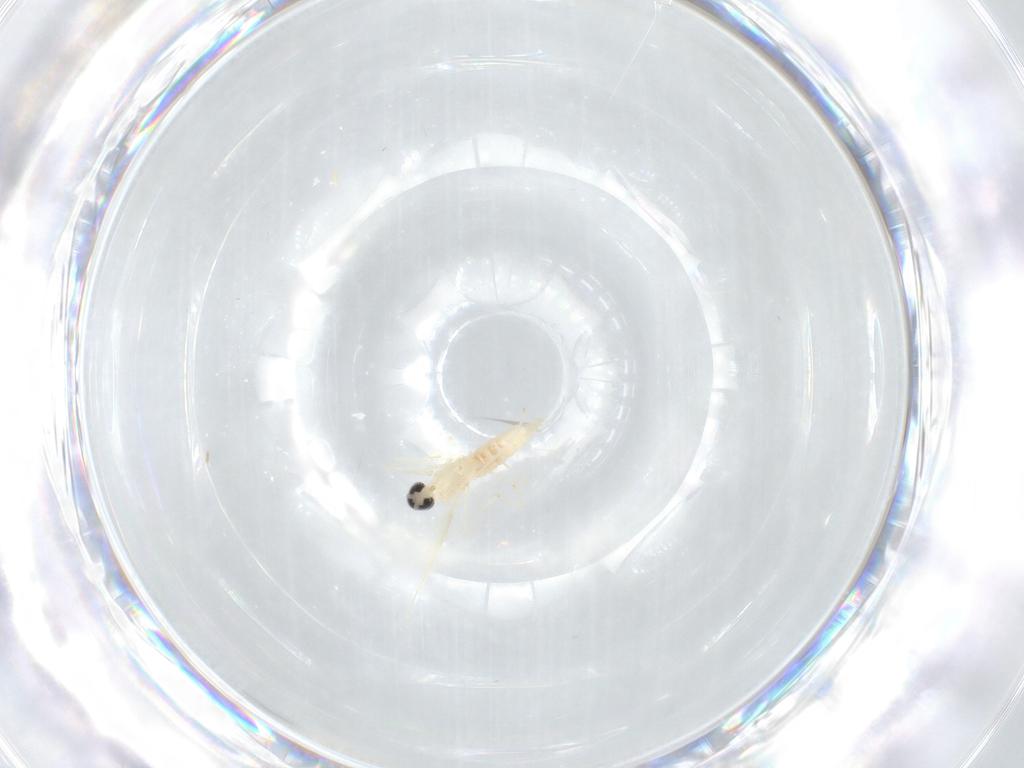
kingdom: Animalia
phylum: Arthropoda
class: Insecta
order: Diptera
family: Cecidomyiidae
